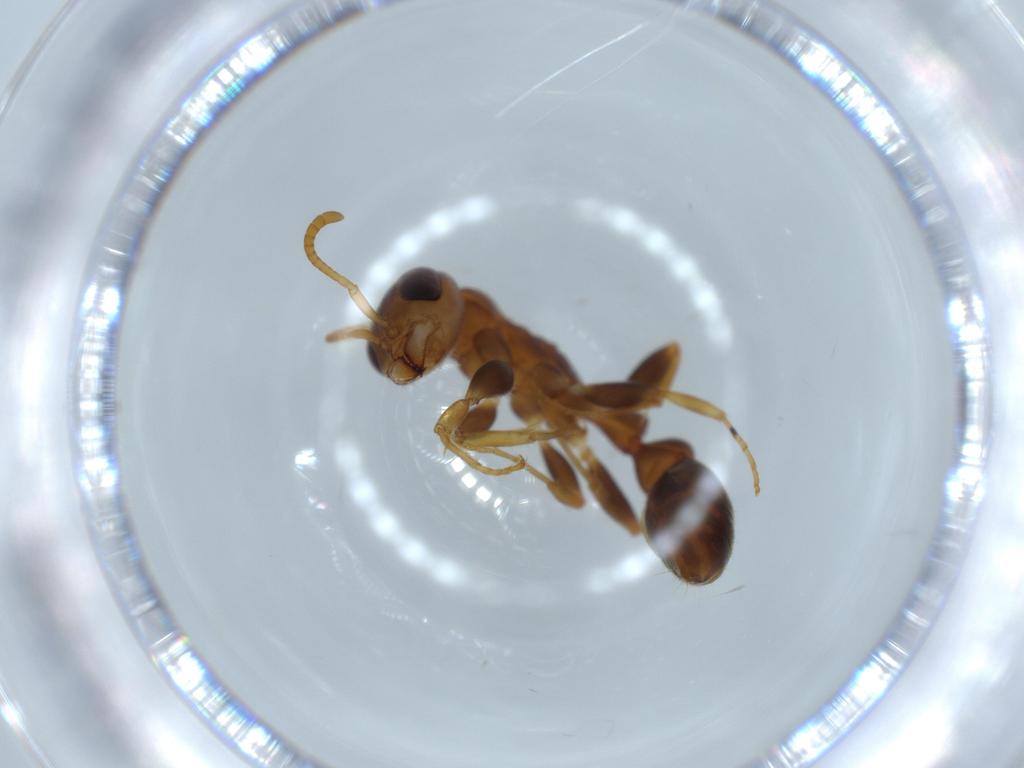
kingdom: Animalia
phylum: Arthropoda
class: Insecta
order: Hymenoptera
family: Formicidae
